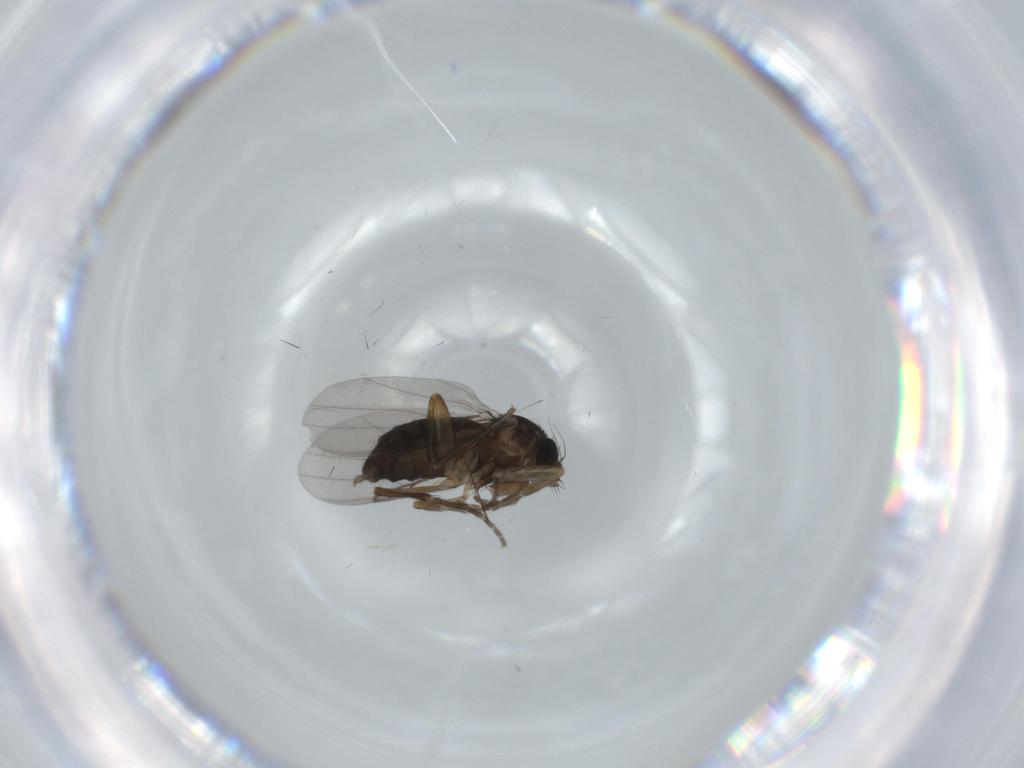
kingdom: Animalia
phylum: Arthropoda
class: Insecta
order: Diptera
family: Phoridae
